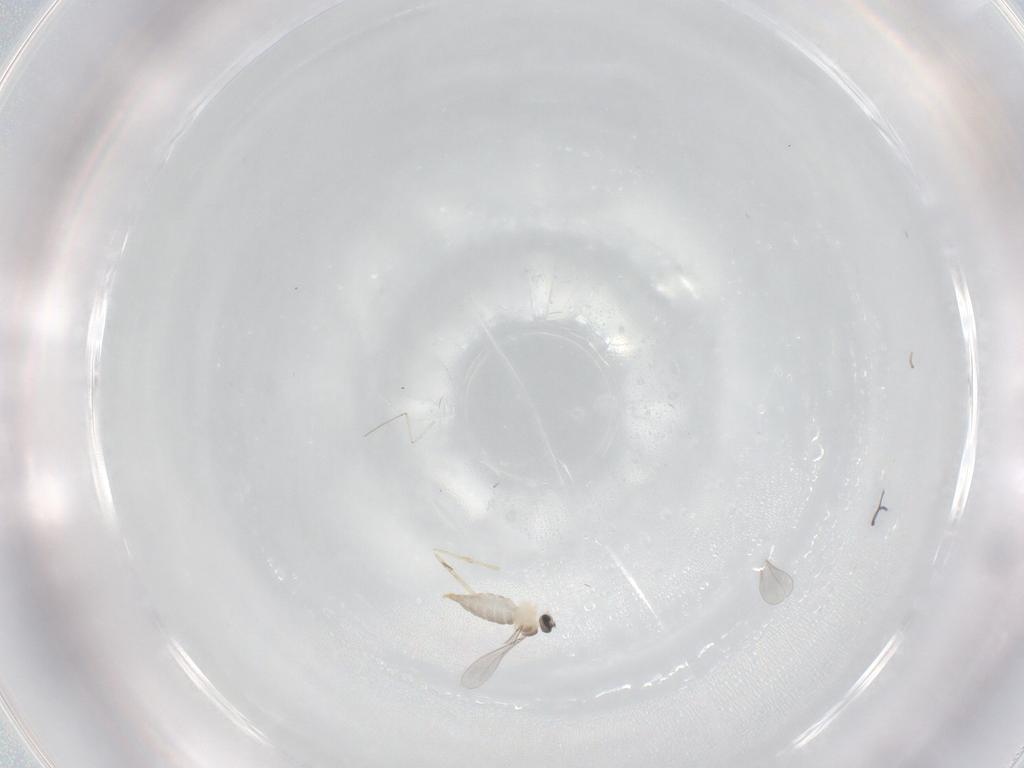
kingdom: Animalia
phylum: Arthropoda
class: Insecta
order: Diptera
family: Cecidomyiidae
